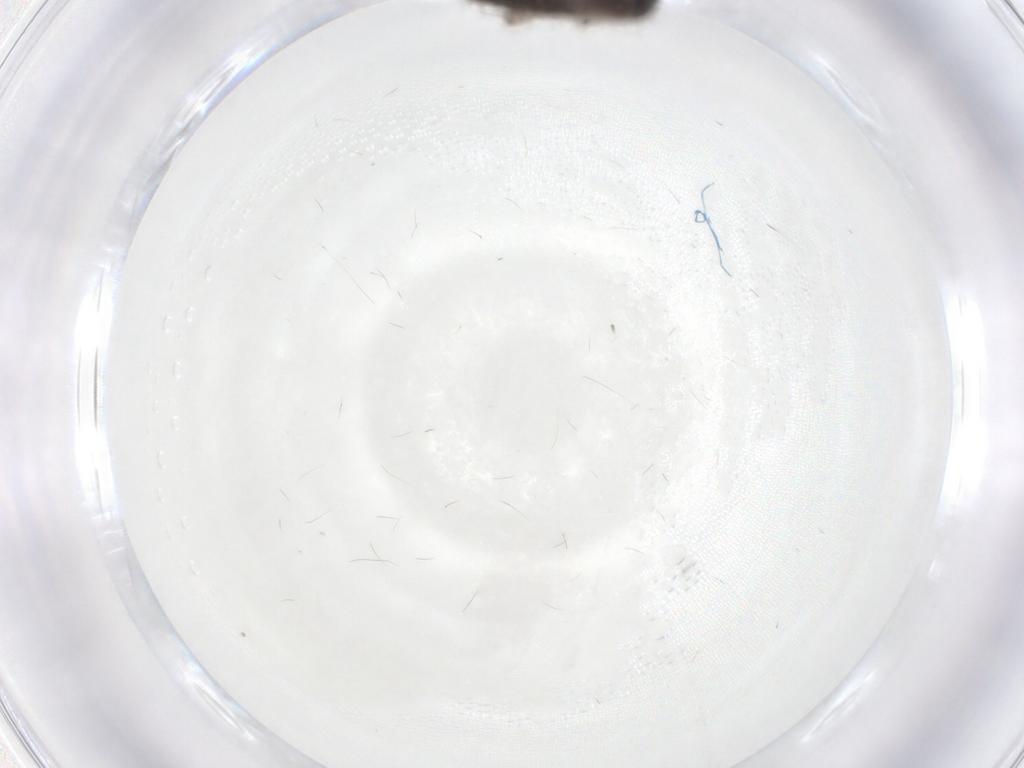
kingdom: Animalia
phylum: Arthropoda
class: Insecta
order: Diptera
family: Phoridae
